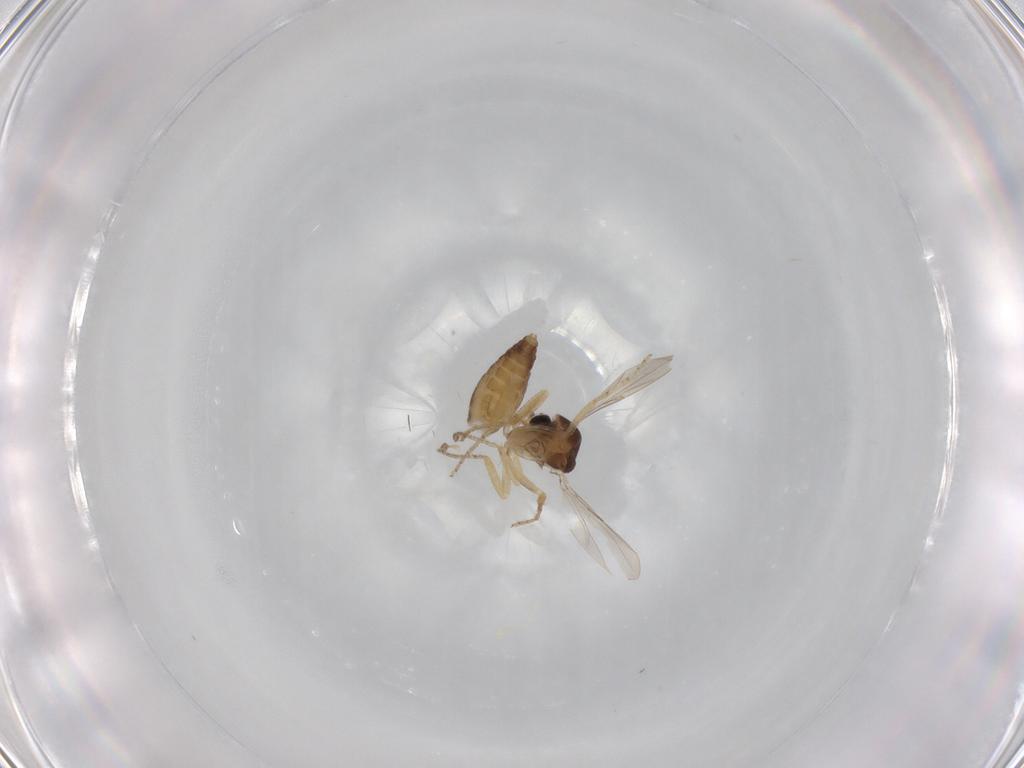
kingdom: Animalia
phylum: Arthropoda
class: Insecta
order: Diptera
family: Ceratopogonidae
